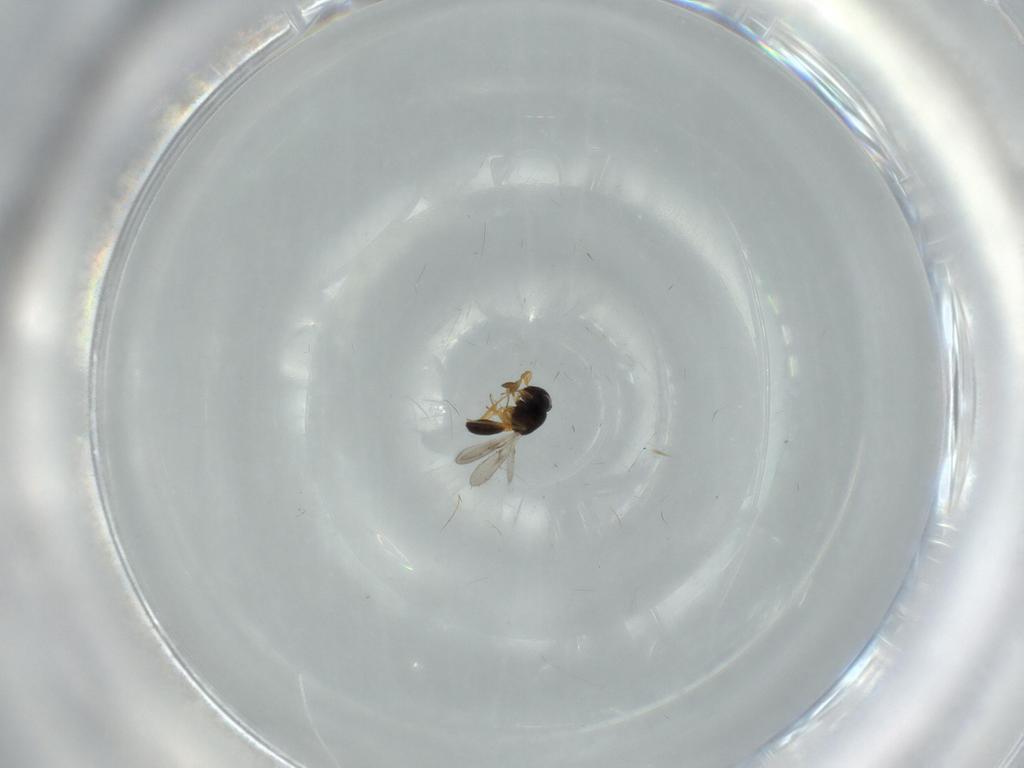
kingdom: Animalia
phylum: Arthropoda
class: Insecta
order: Hymenoptera
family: Scelionidae
